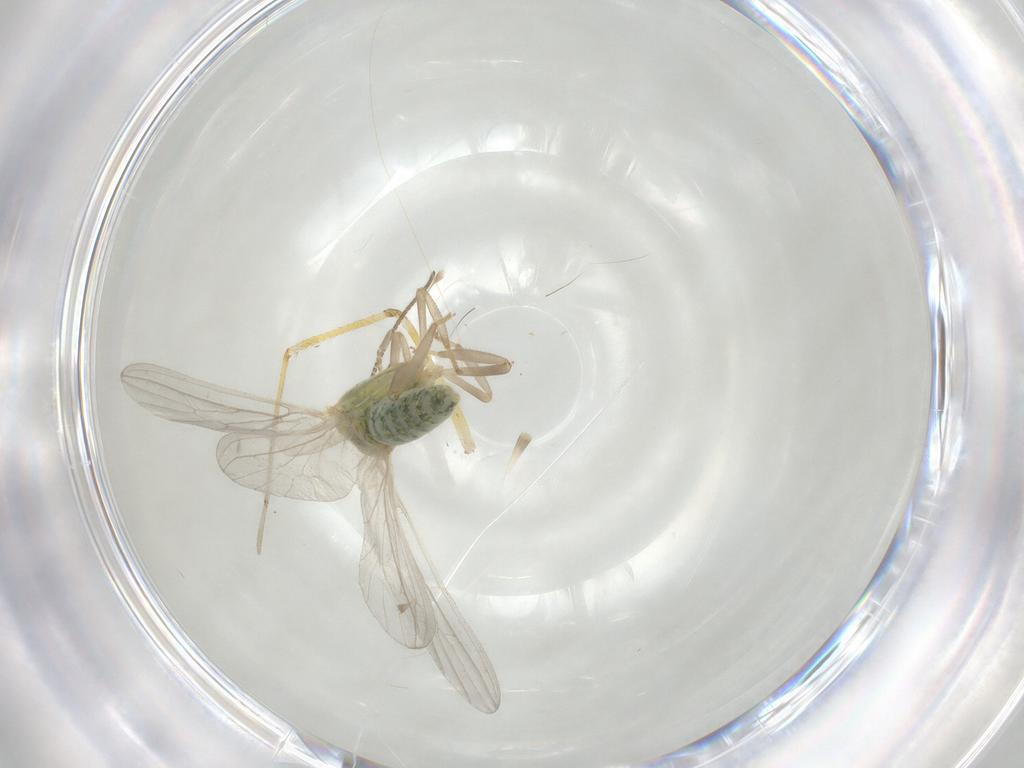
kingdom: Animalia
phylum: Arthropoda
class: Insecta
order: Neuroptera
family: Coniopterygidae
